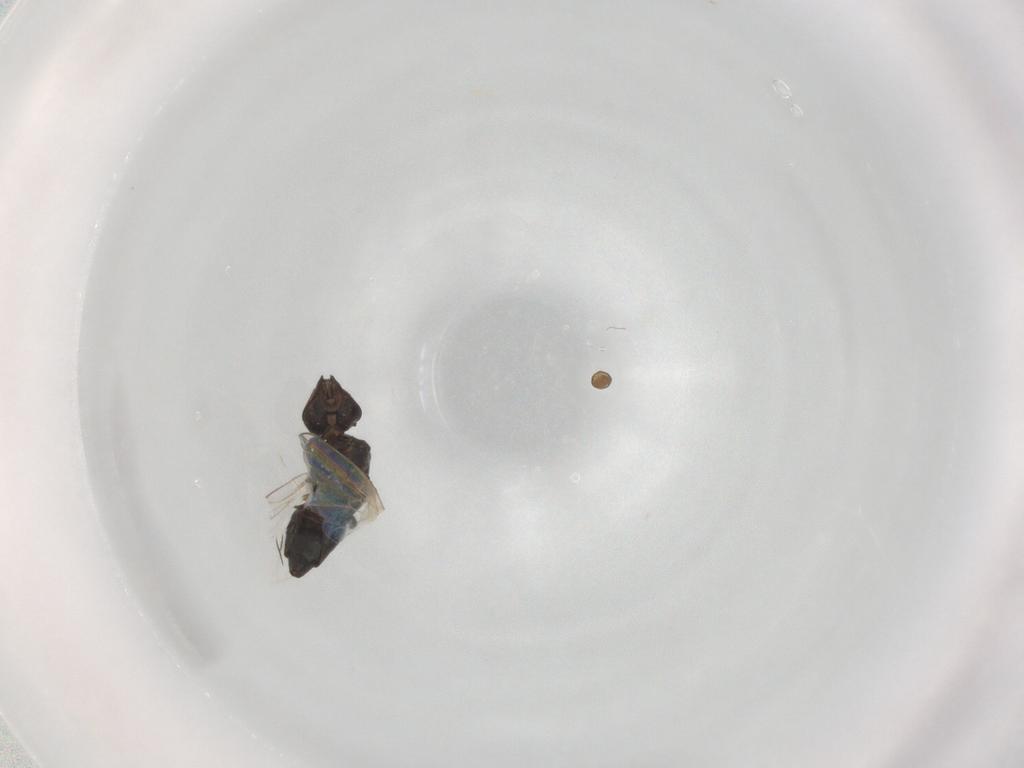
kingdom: Animalia
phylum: Arthropoda
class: Insecta
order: Diptera
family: Agromyzidae
